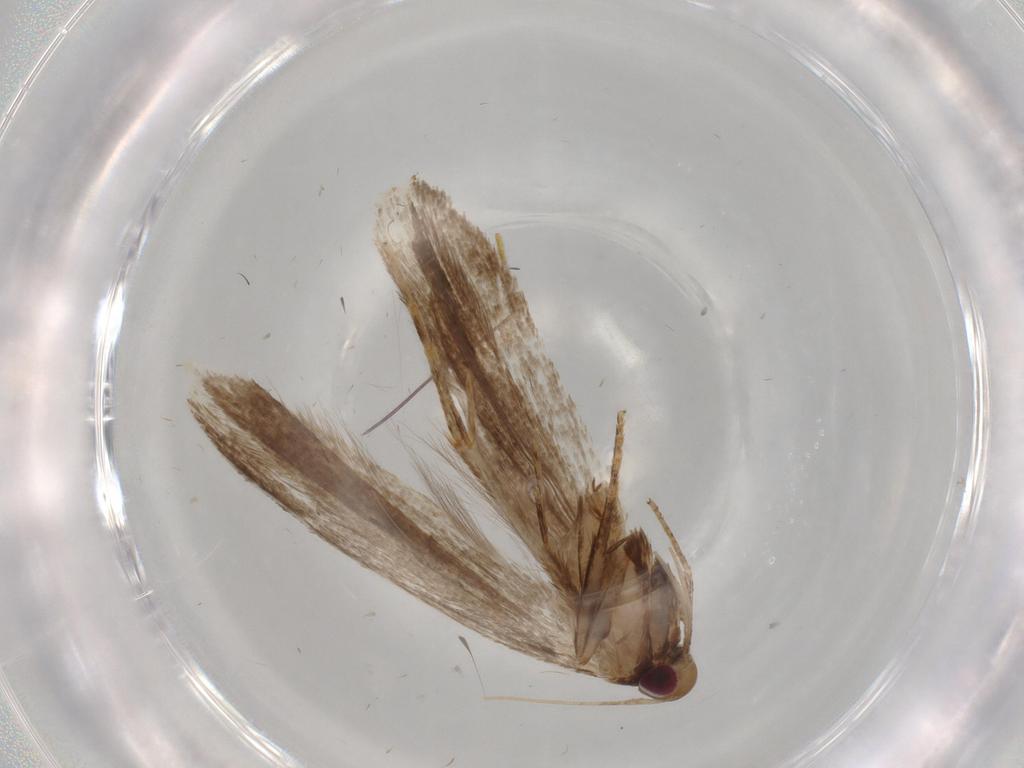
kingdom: Animalia
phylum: Arthropoda
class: Insecta
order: Lepidoptera
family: Gelechiidae
